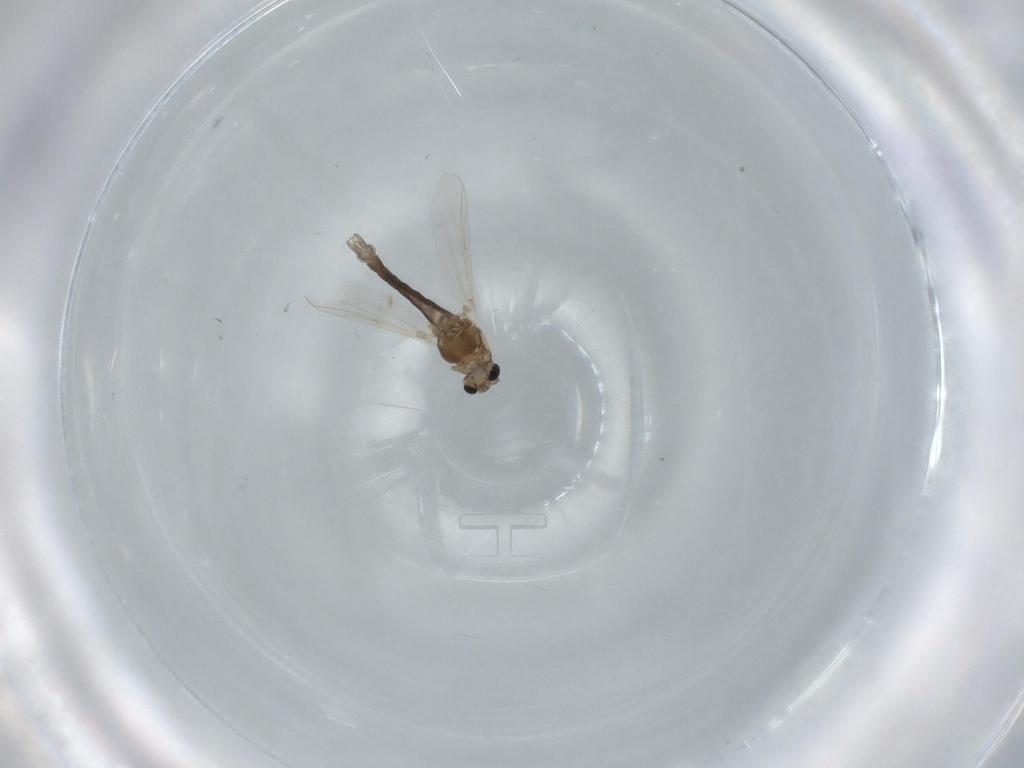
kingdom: Animalia
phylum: Arthropoda
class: Insecta
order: Diptera
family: Chironomidae
